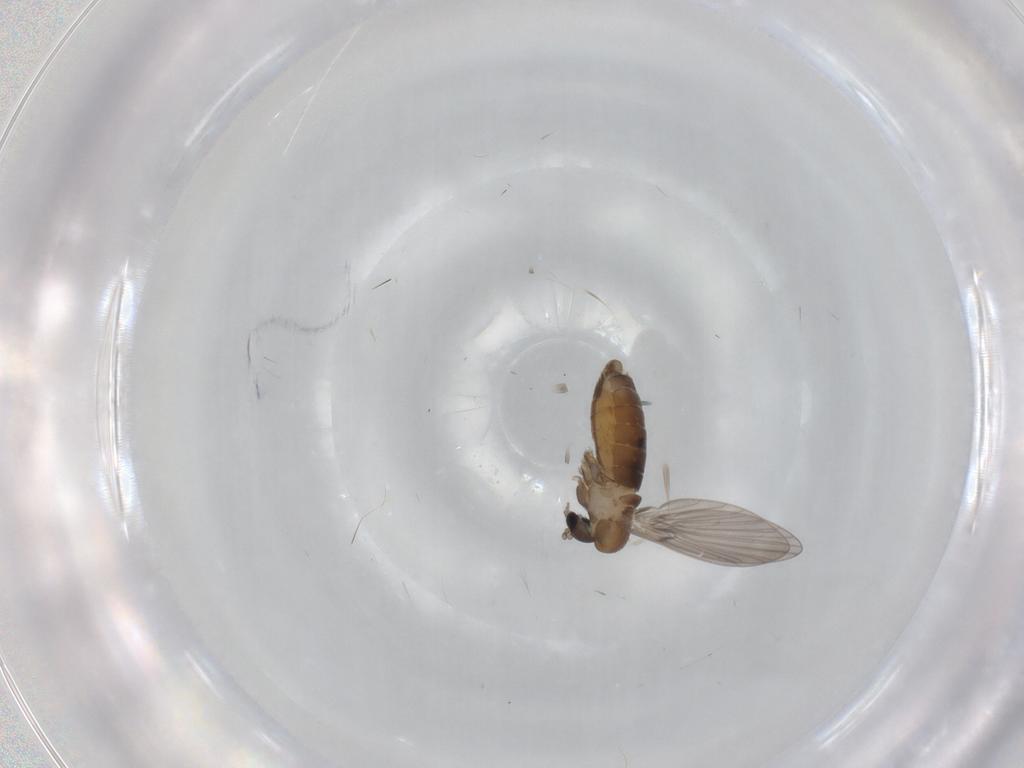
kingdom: Animalia
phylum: Arthropoda
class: Insecta
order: Diptera
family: Psychodidae
